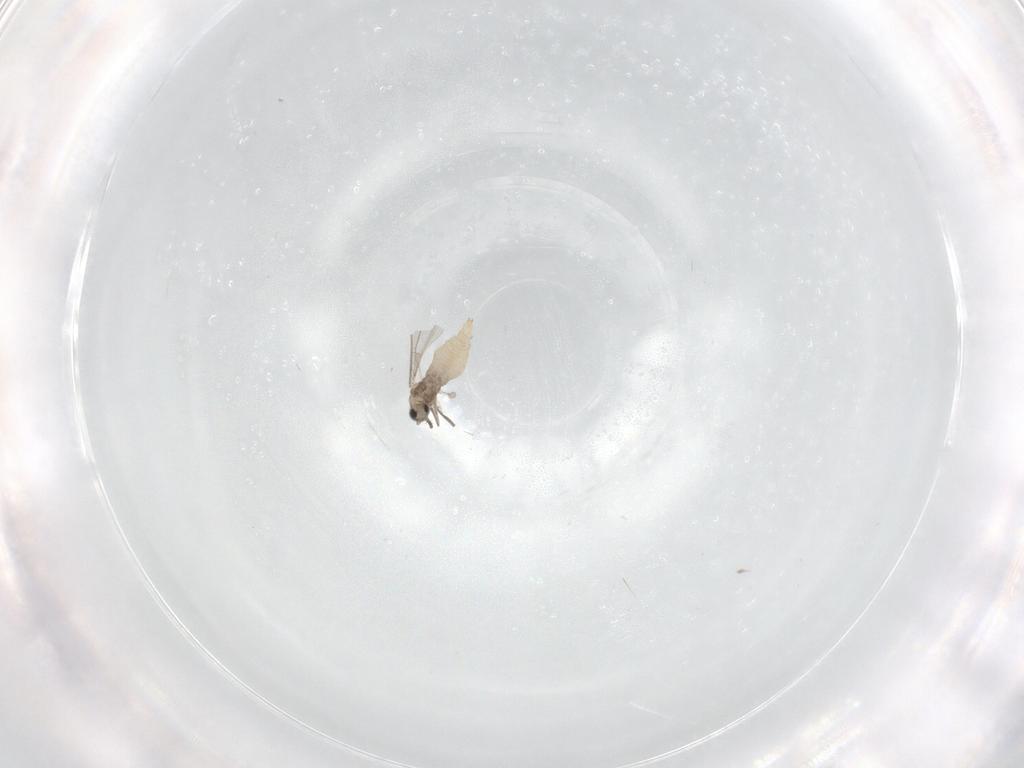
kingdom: Animalia
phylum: Arthropoda
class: Insecta
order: Diptera
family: Cecidomyiidae
